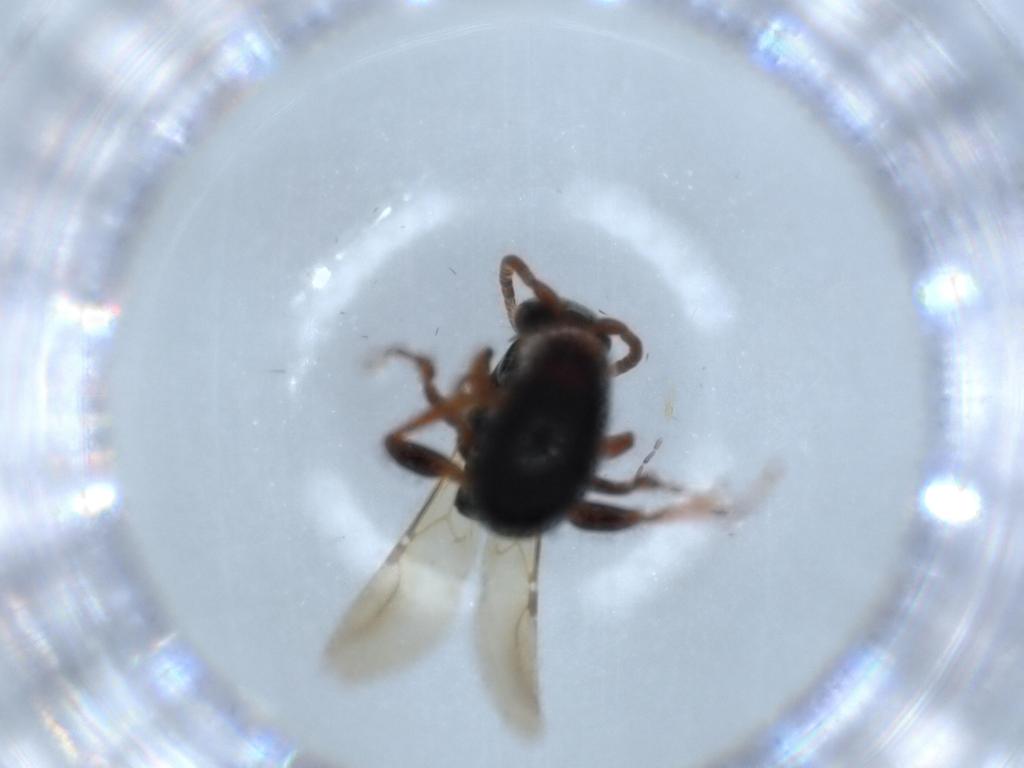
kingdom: Animalia
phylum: Arthropoda
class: Insecta
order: Hymenoptera
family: Bethylidae
